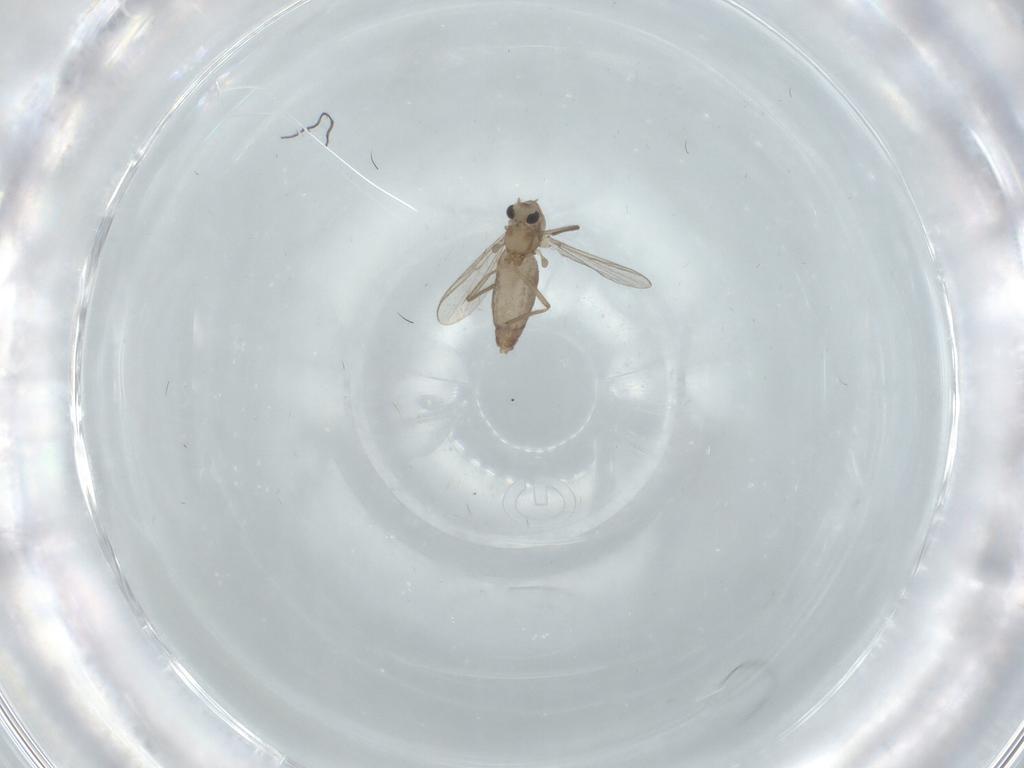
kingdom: Animalia
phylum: Arthropoda
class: Insecta
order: Diptera
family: Chironomidae
